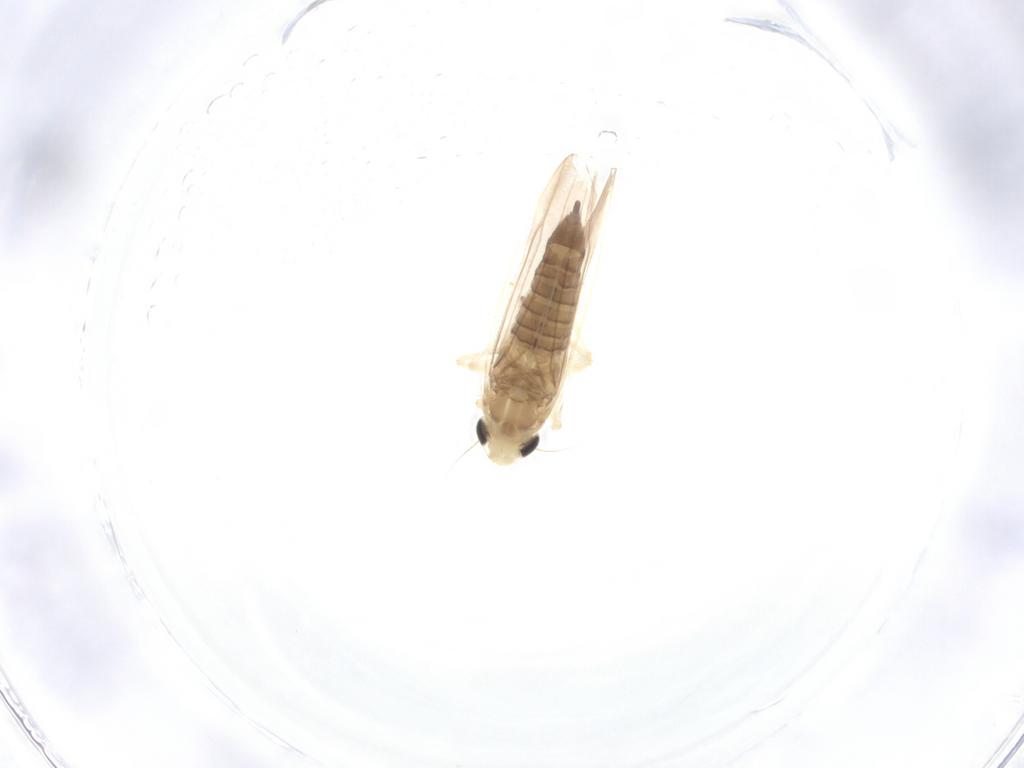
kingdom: Animalia
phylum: Arthropoda
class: Insecta
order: Hemiptera
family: Cicadellidae
